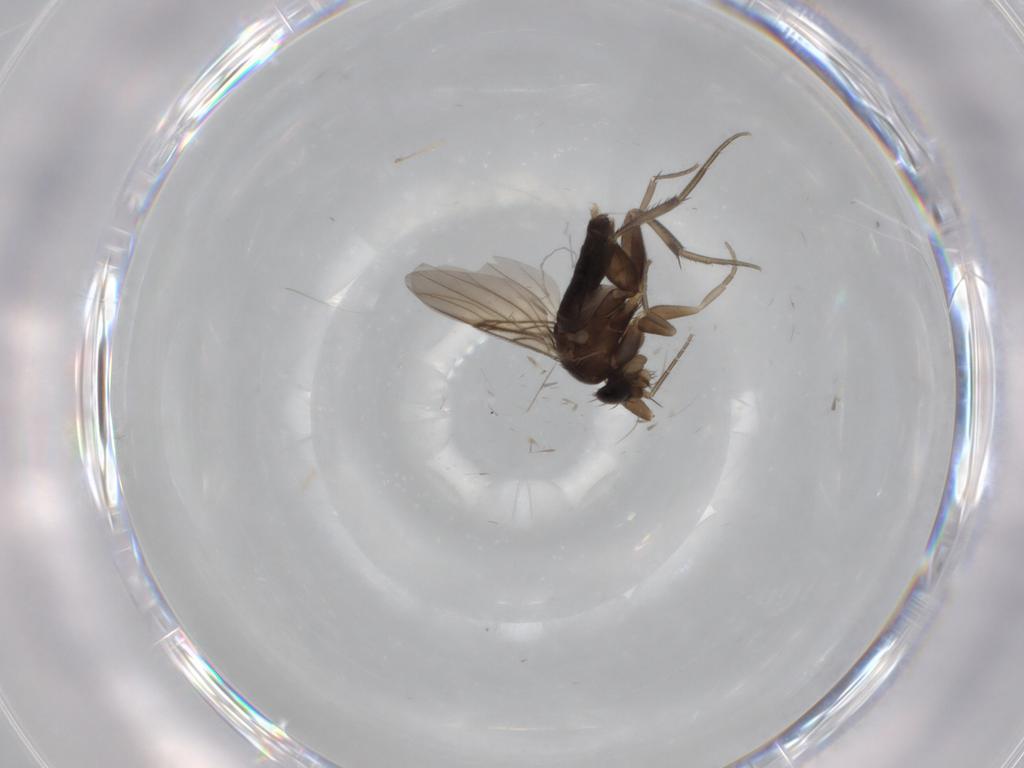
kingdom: Animalia
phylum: Arthropoda
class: Insecta
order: Diptera
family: Phoridae
